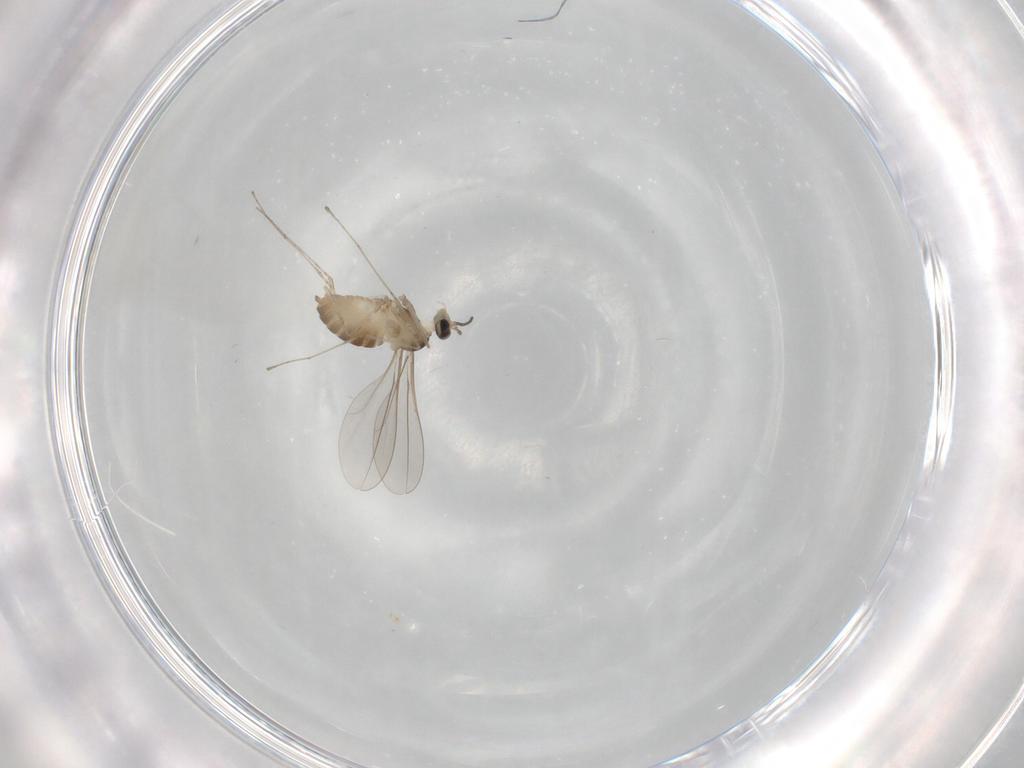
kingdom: Animalia
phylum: Arthropoda
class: Insecta
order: Diptera
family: Cecidomyiidae
